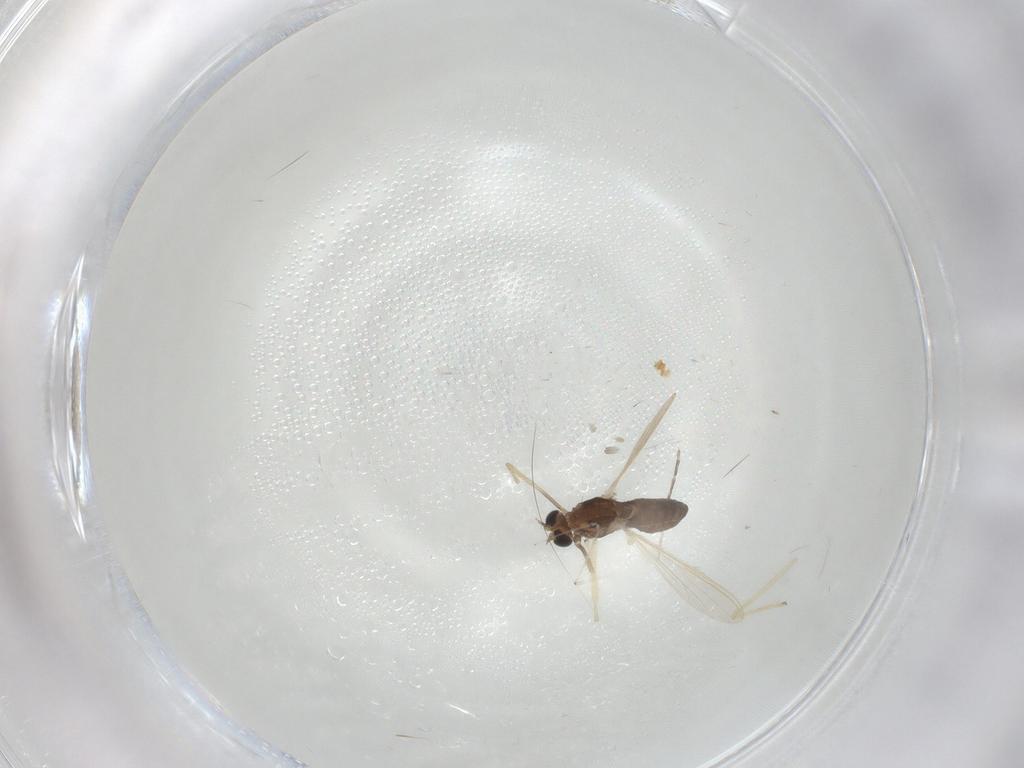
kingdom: Animalia
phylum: Arthropoda
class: Insecta
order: Diptera
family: Chironomidae
